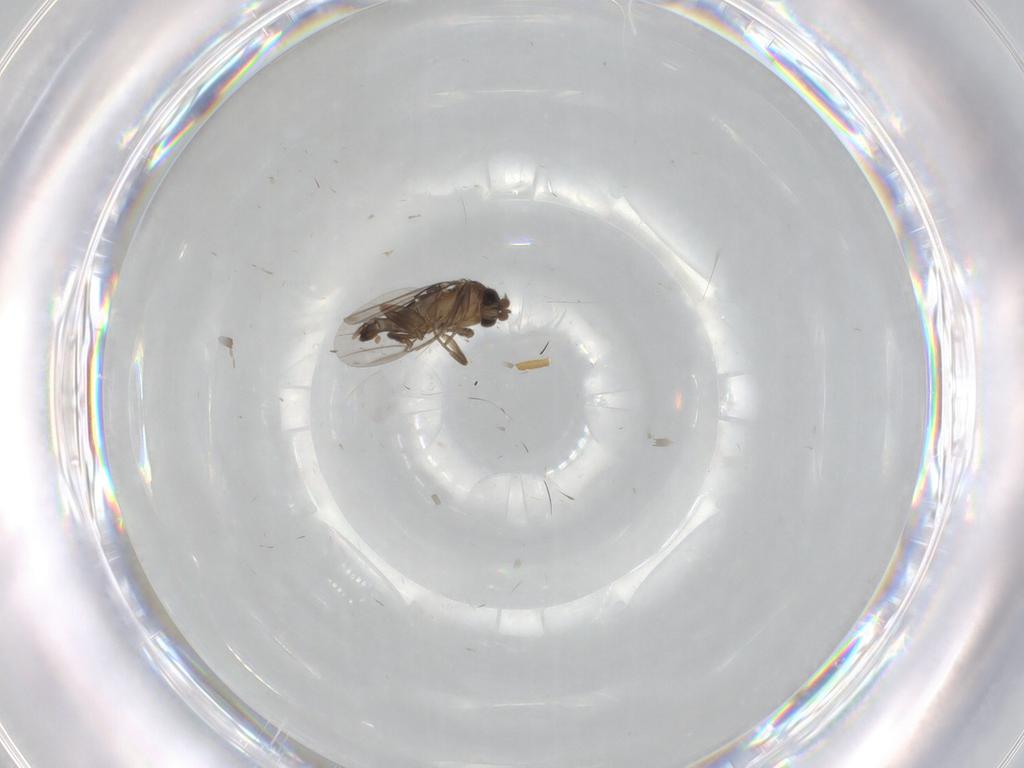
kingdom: Animalia
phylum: Arthropoda
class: Insecta
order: Diptera
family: Phoridae
